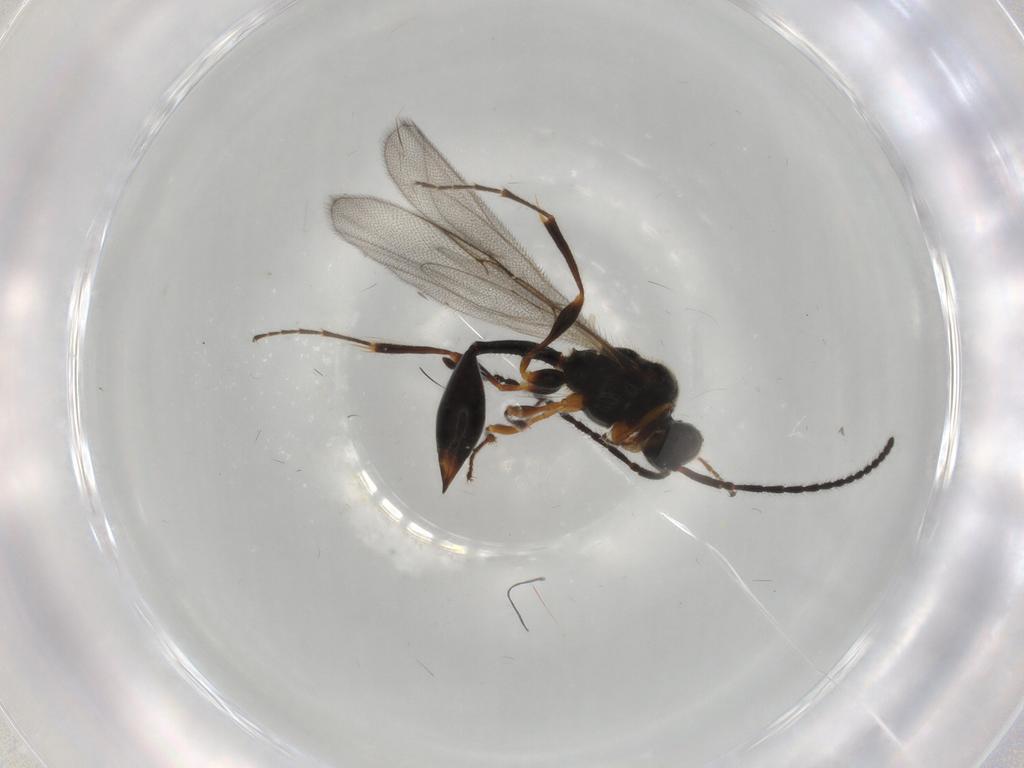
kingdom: Animalia
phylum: Arthropoda
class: Insecta
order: Hymenoptera
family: Diapriidae
